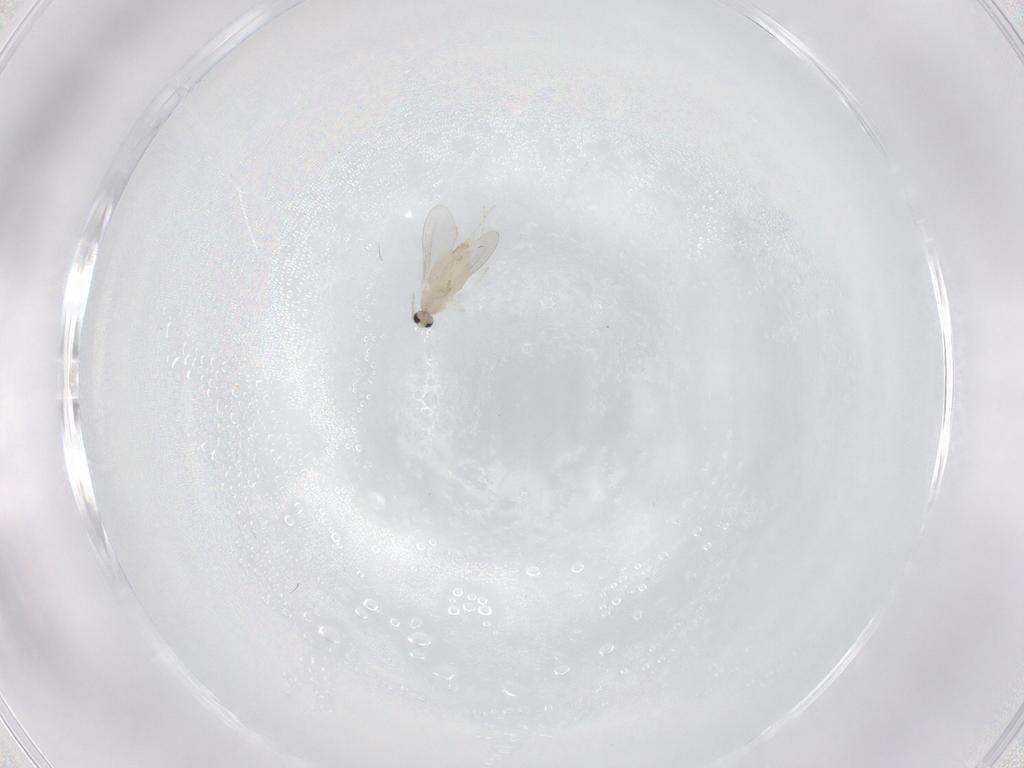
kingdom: Animalia
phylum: Arthropoda
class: Insecta
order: Diptera
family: Cecidomyiidae
